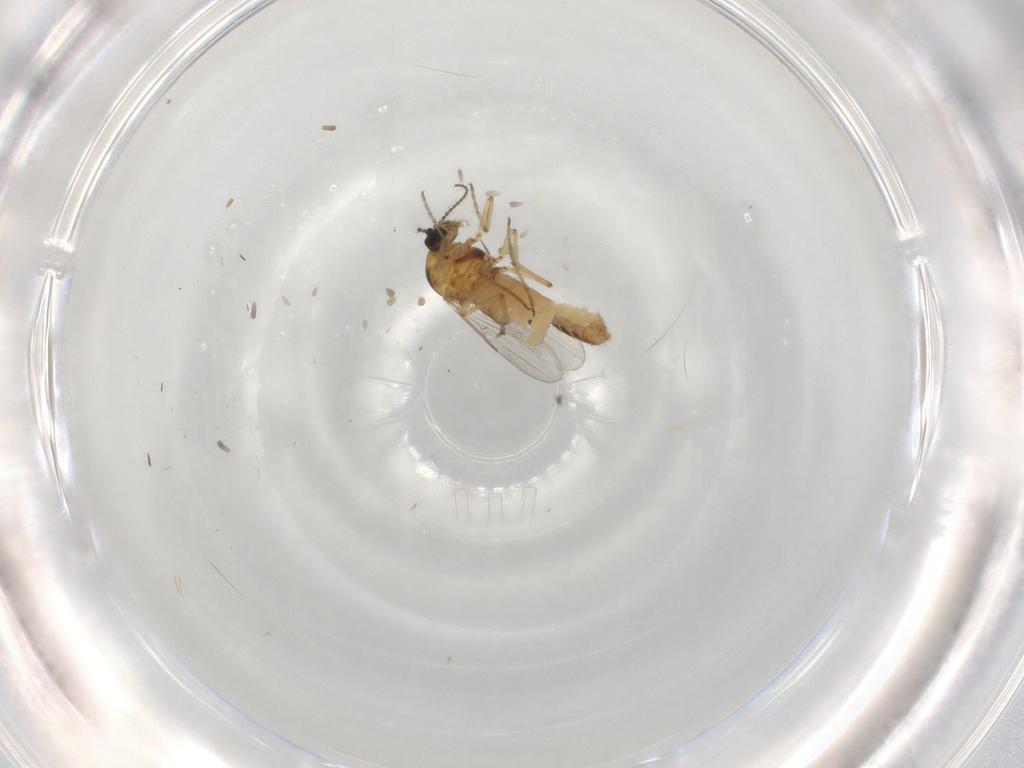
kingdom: Animalia
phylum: Arthropoda
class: Insecta
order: Diptera
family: Ceratopogonidae
